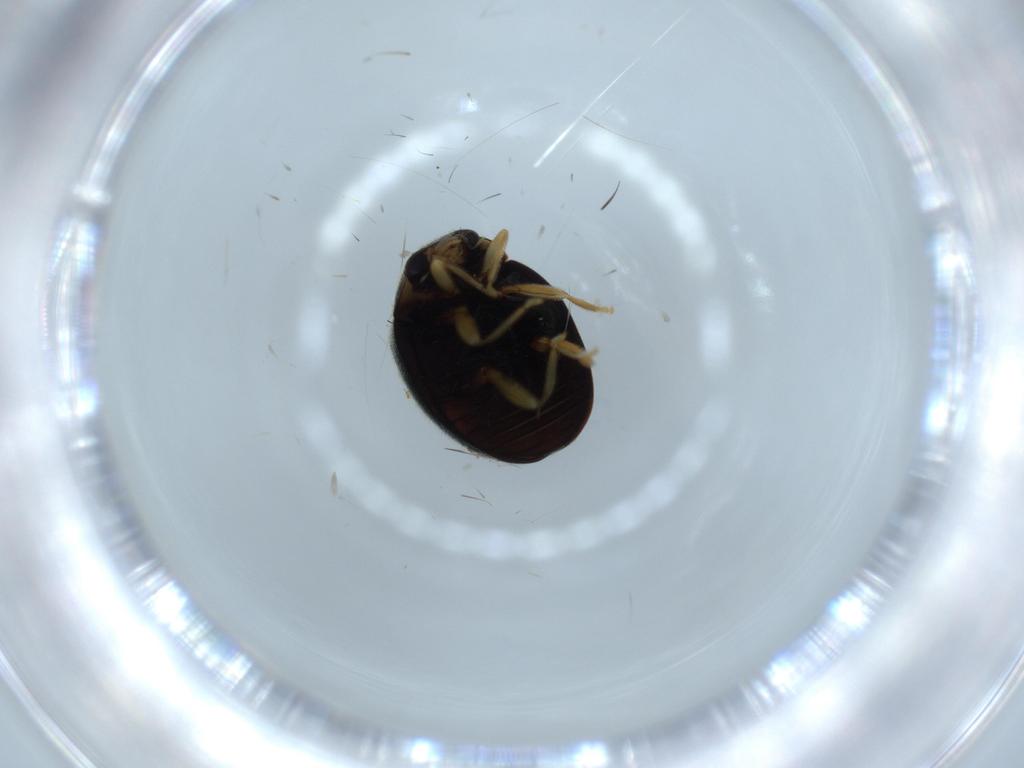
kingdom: Animalia
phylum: Arthropoda
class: Insecta
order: Coleoptera
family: Coccinellidae
